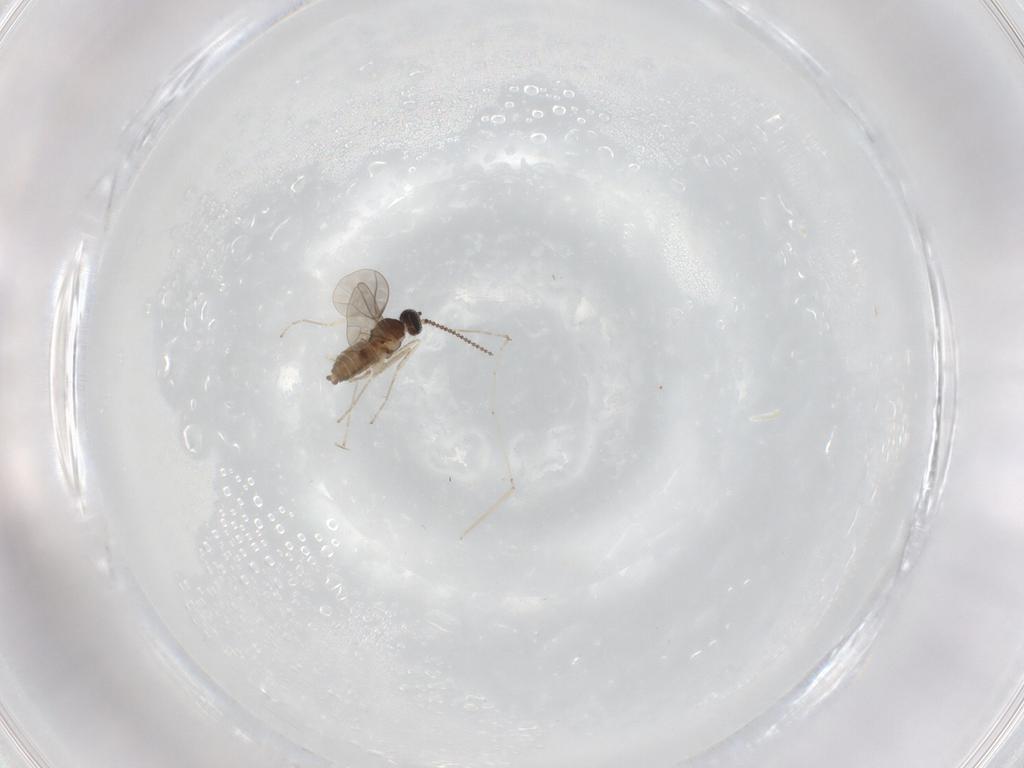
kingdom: Animalia
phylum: Arthropoda
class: Insecta
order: Diptera
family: Cecidomyiidae
